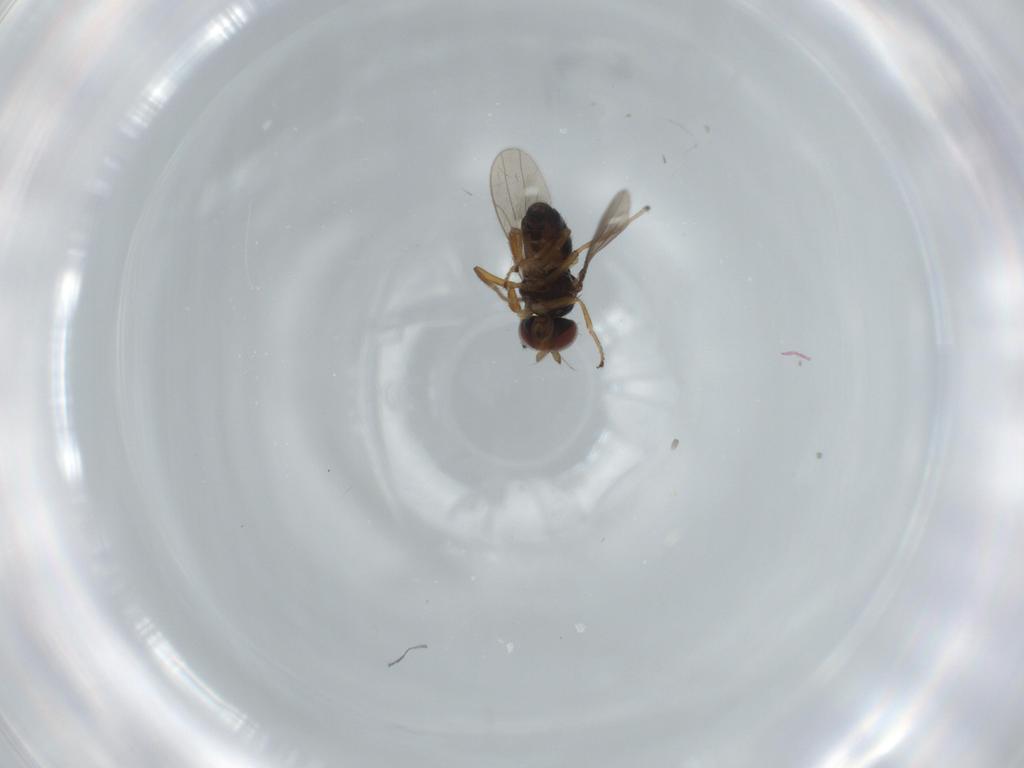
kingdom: Animalia
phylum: Arthropoda
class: Insecta
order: Diptera
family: Ephydridae
